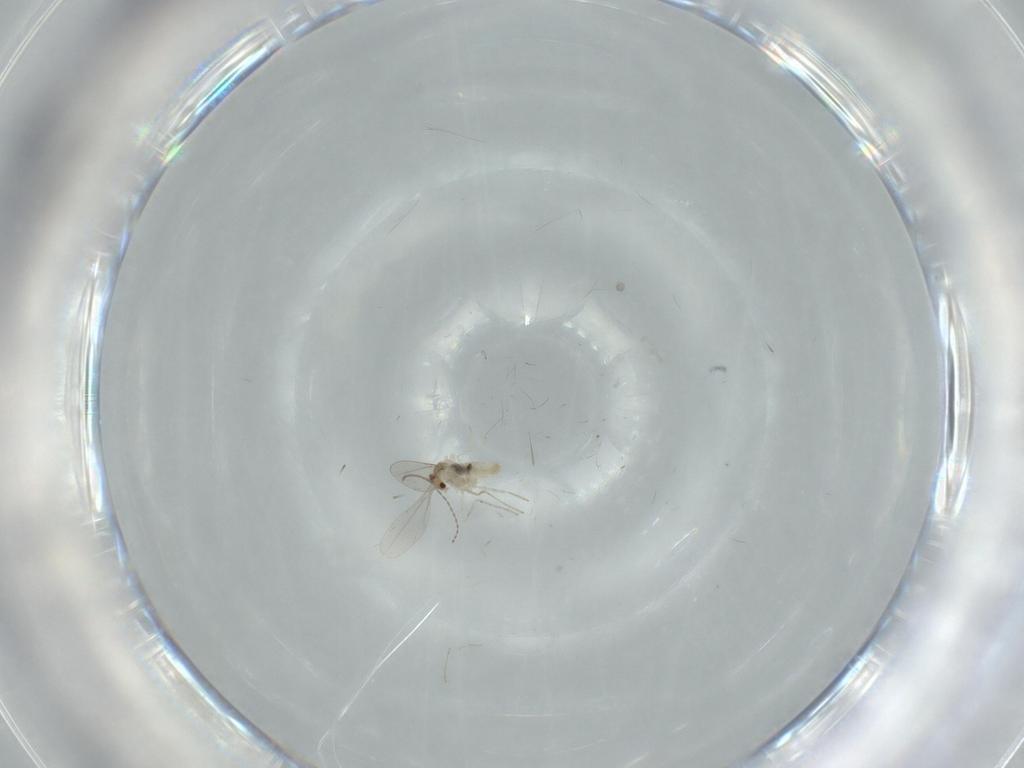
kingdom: Animalia
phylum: Arthropoda
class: Insecta
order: Diptera
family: Cecidomyiidae
